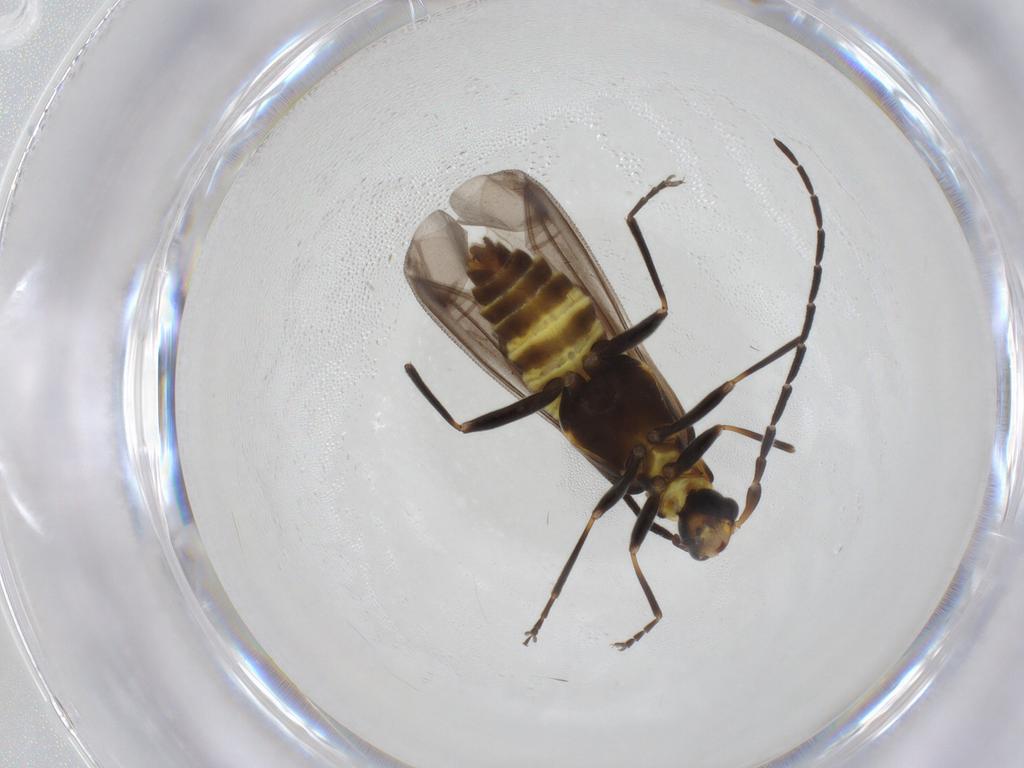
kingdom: Animalia
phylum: Arthropoda
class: Insecta
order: Coleoptera
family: Cantharidae
